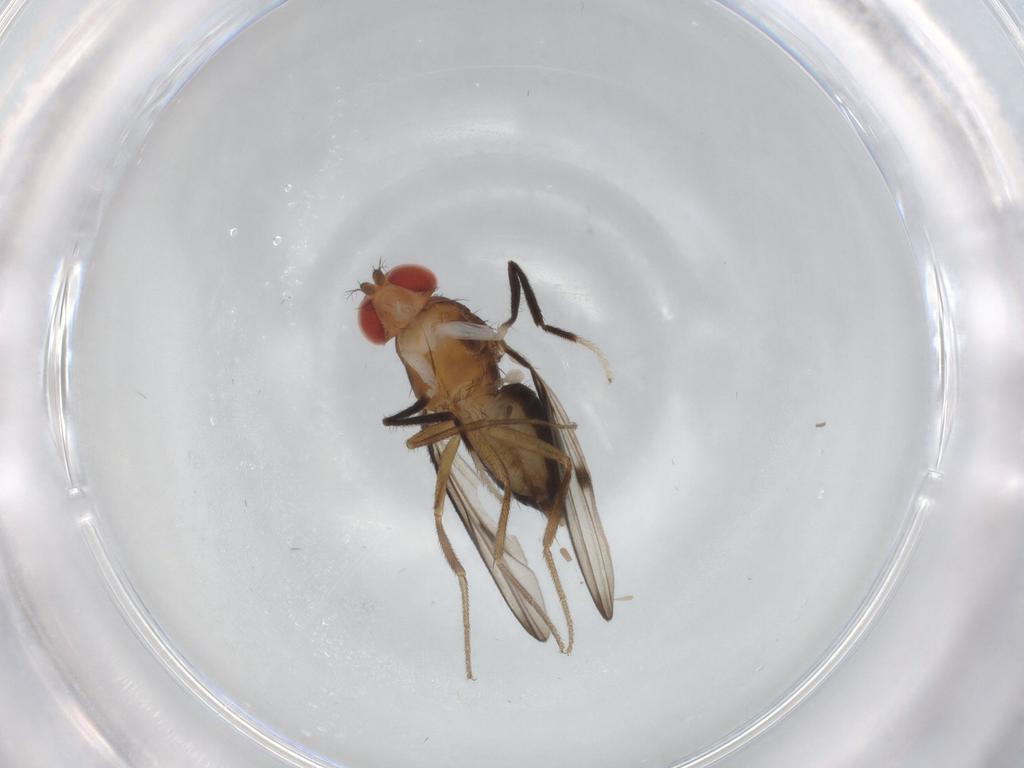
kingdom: Animalia
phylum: Arthropoda
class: Insecta
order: Diptera
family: Drosophilidae
